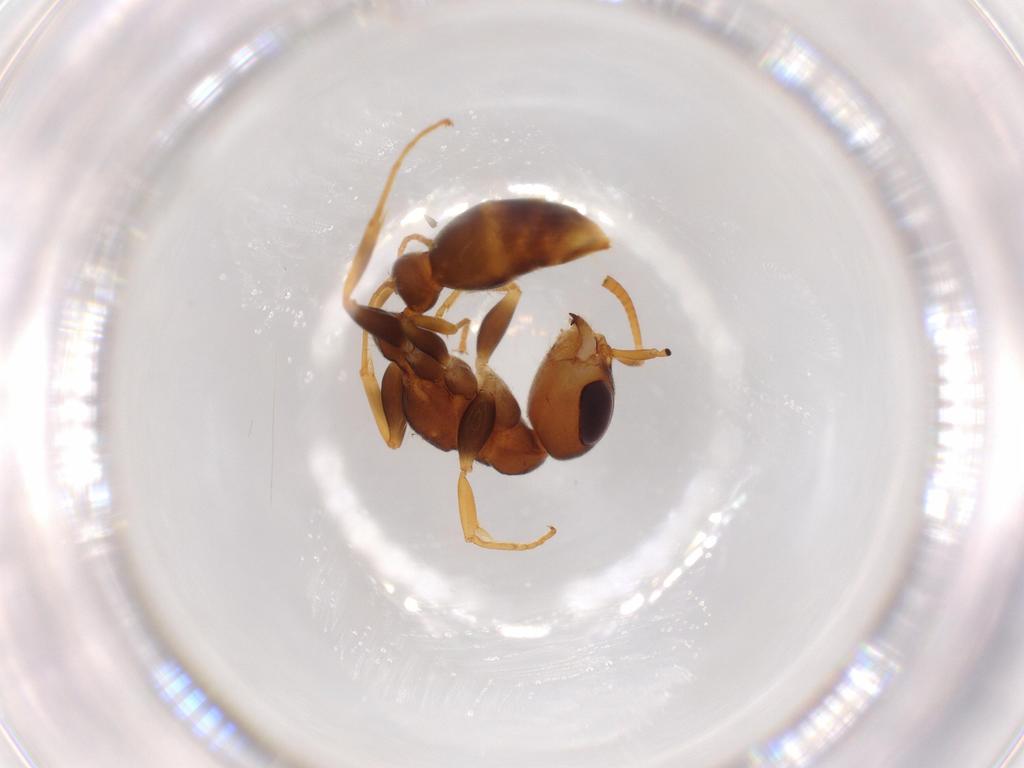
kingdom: Animalia
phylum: Arthropoda
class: Insecta
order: Hymenoptera
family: Formicidae
